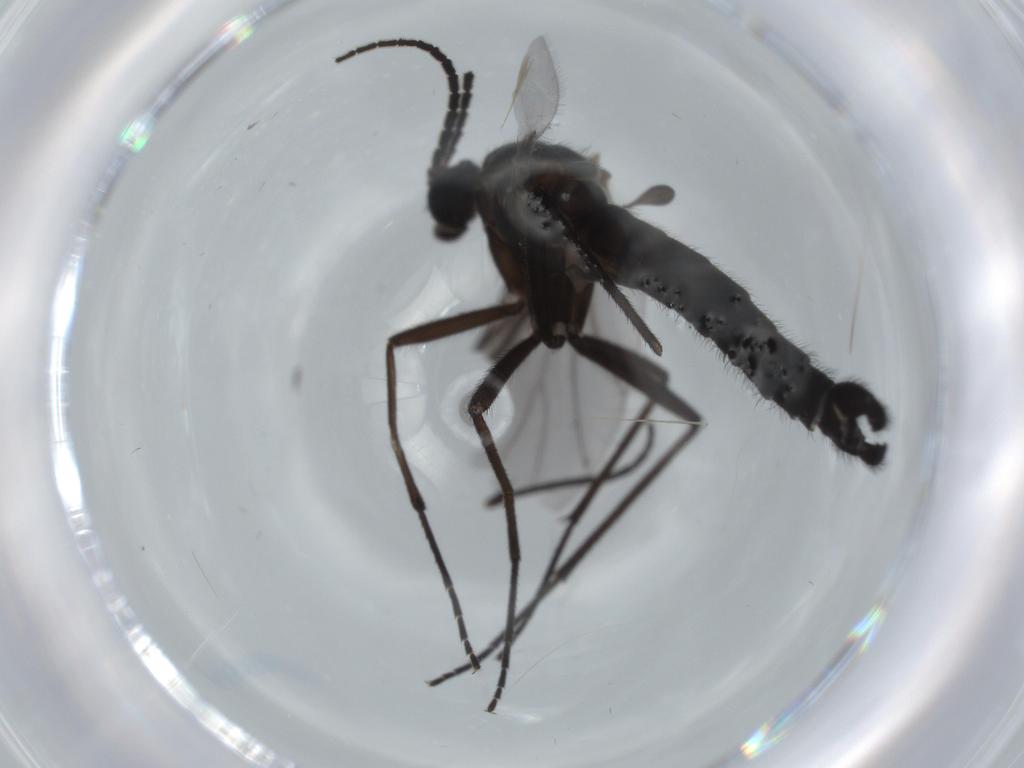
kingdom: Animalia
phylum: Arthropoda
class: Insecta
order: Diptera
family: Cecidomyiidae
